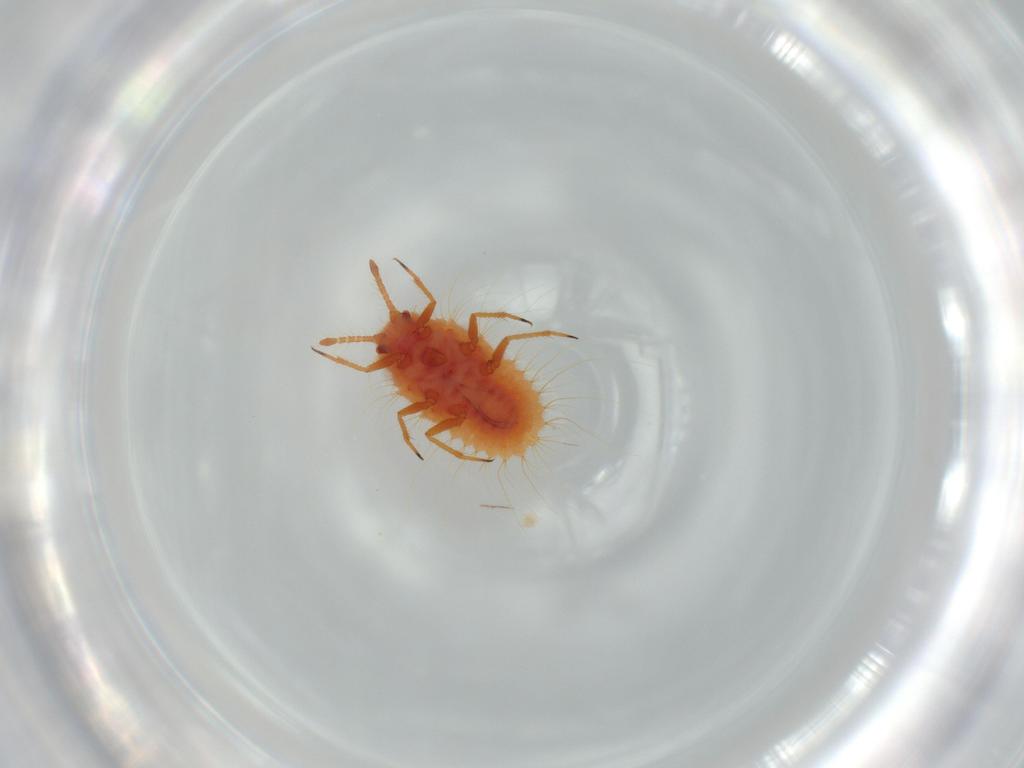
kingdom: Animalia
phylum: Arthropoda
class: Insecta
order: Hemiptera
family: Coccoidea_incertae_sedis
